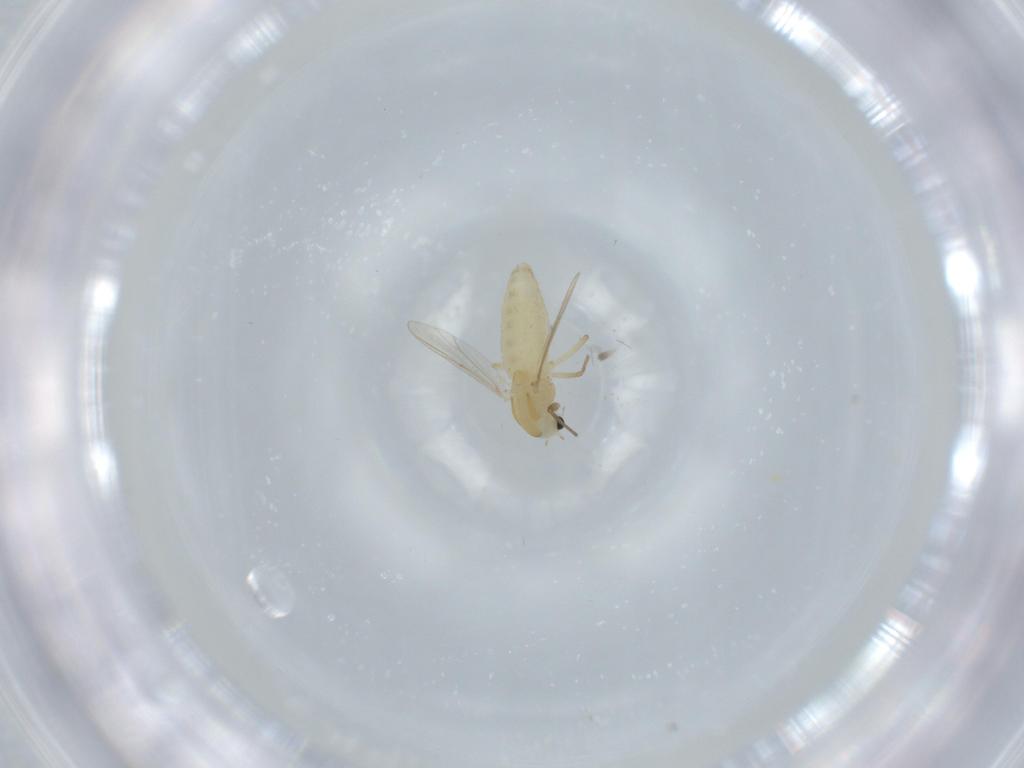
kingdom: Animalia
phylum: Arthropoda
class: Insecta
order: Diptera
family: Chironomidae
